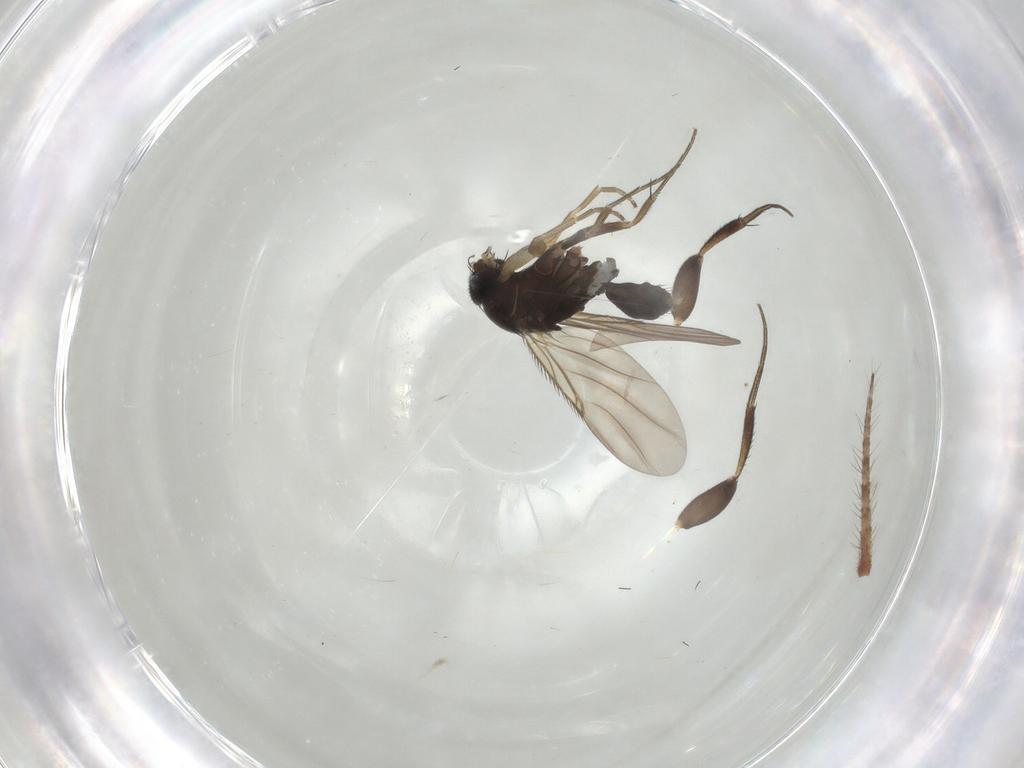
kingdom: Animalia
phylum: Arthropoda
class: Insecta
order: Diptera
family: Phoridae
